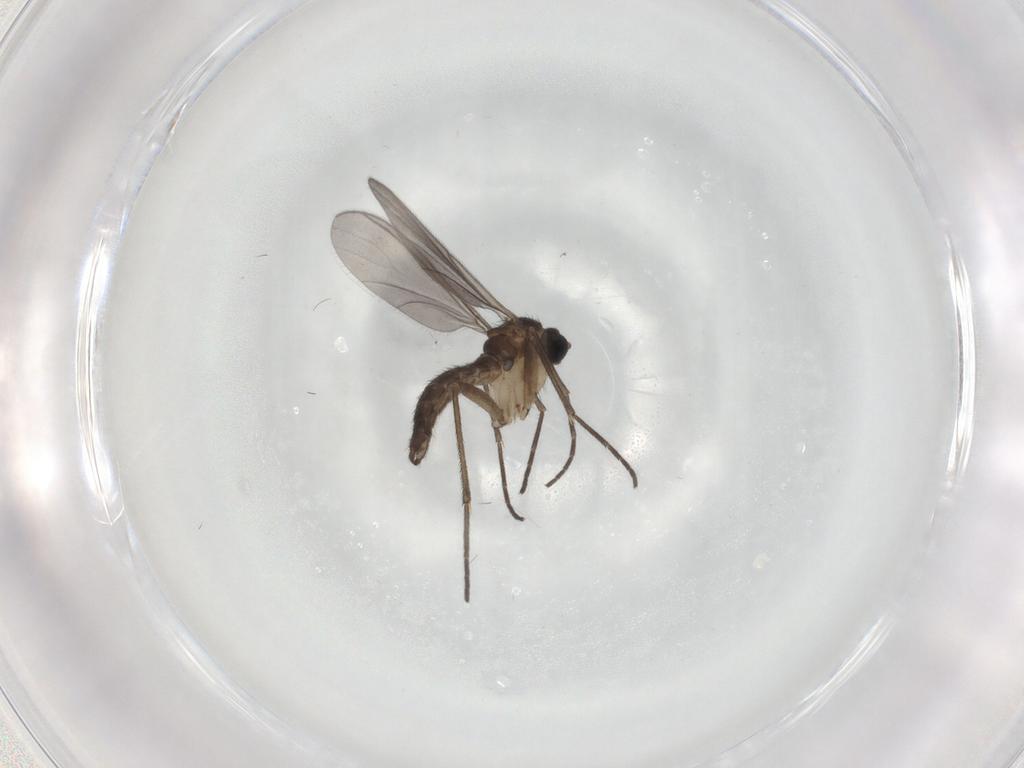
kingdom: Animalia
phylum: Arthropoda
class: Insecta
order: Diptera
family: Sciaridae
